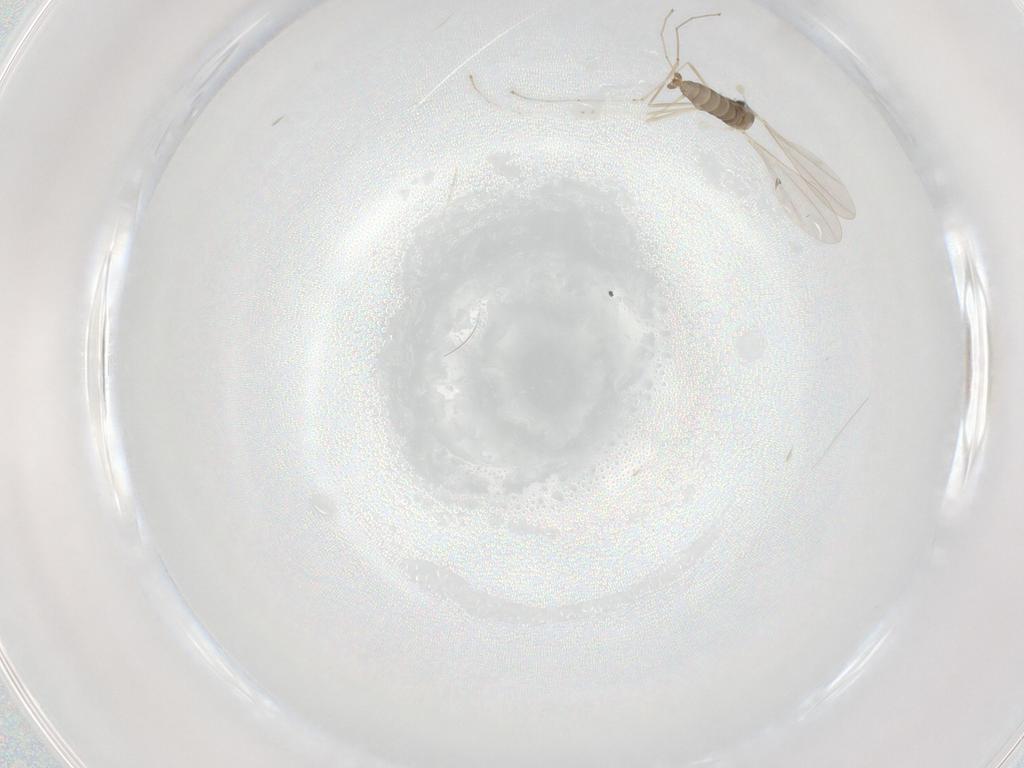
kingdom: Animalia
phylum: Arthropoda
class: Insecta
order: Diptera
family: Cecidomyiidae
